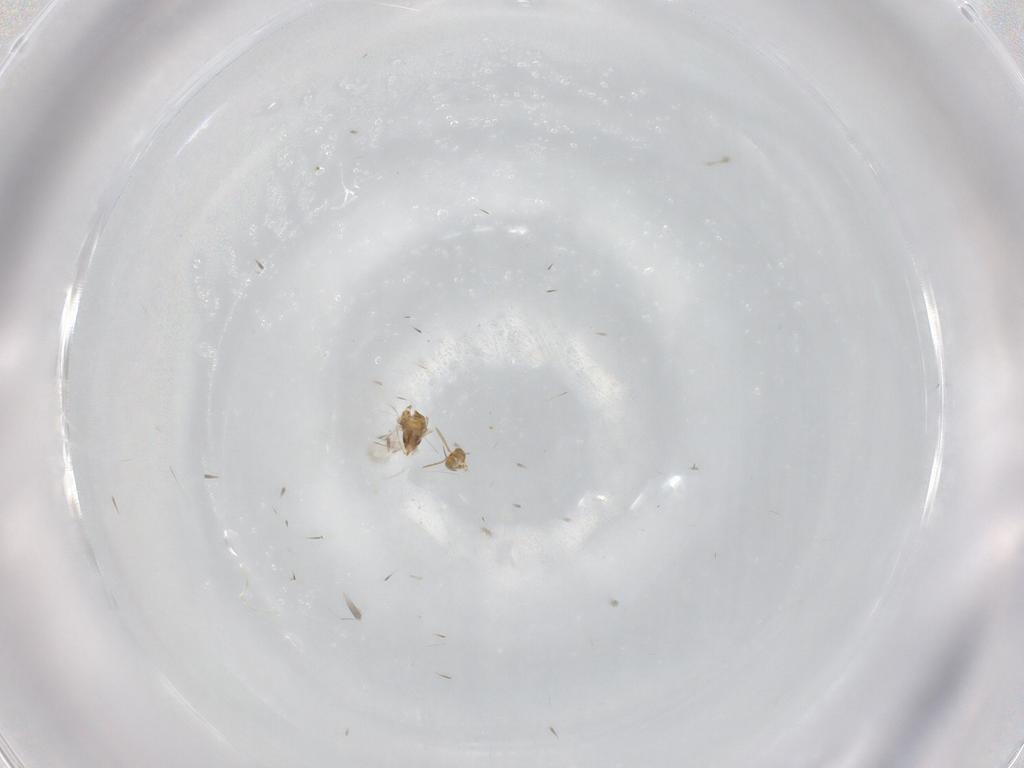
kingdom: Animalia
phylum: Arthropoda
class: Insecta
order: Hymenoptera
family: Aphelinidae
